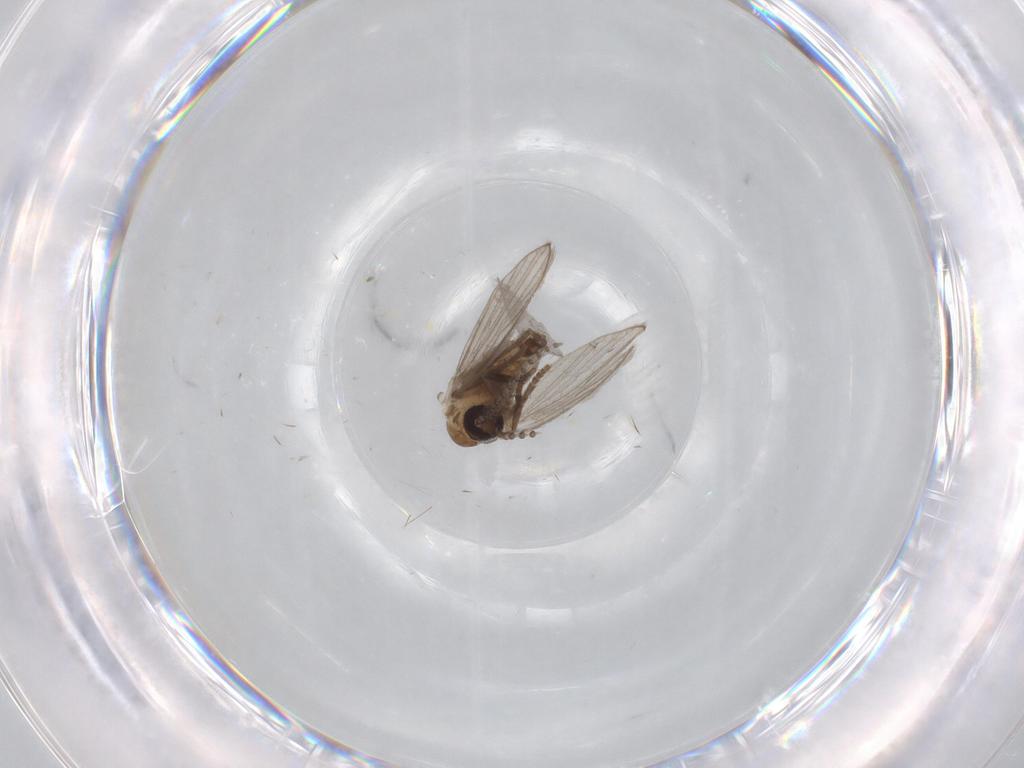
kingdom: Animalia
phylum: Arthropoda
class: Insecta
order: Diptera
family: Psychodidae
